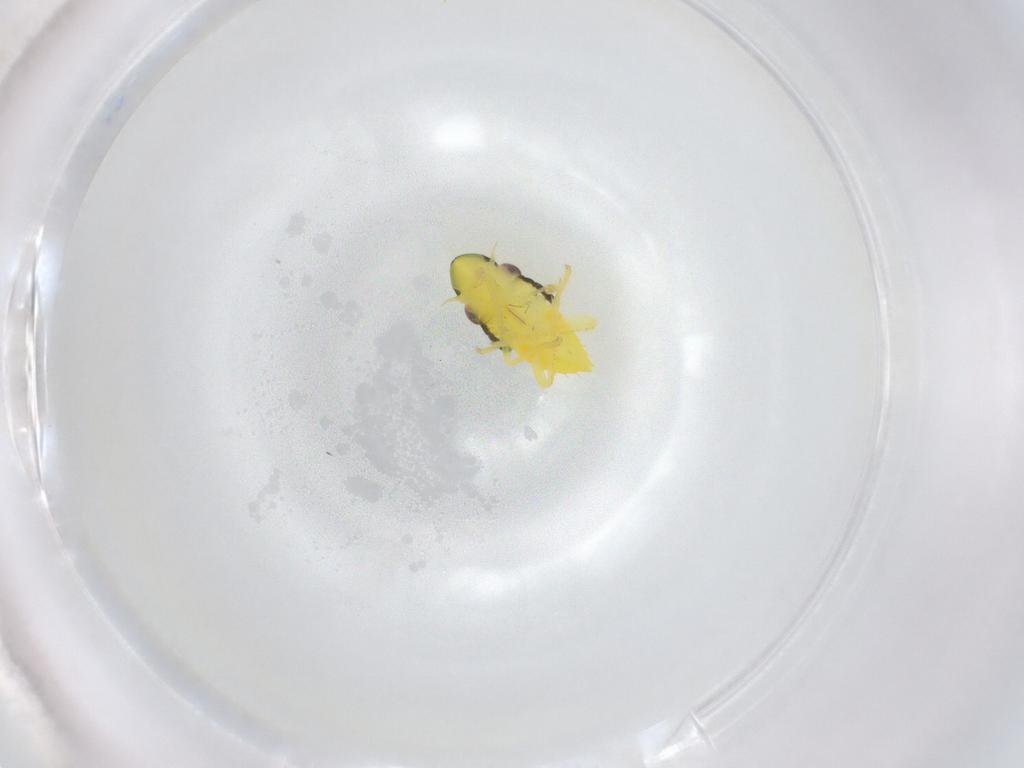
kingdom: Animalia
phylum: Arthropoda
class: Insecta
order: Hemiptera
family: Cicadellidae
